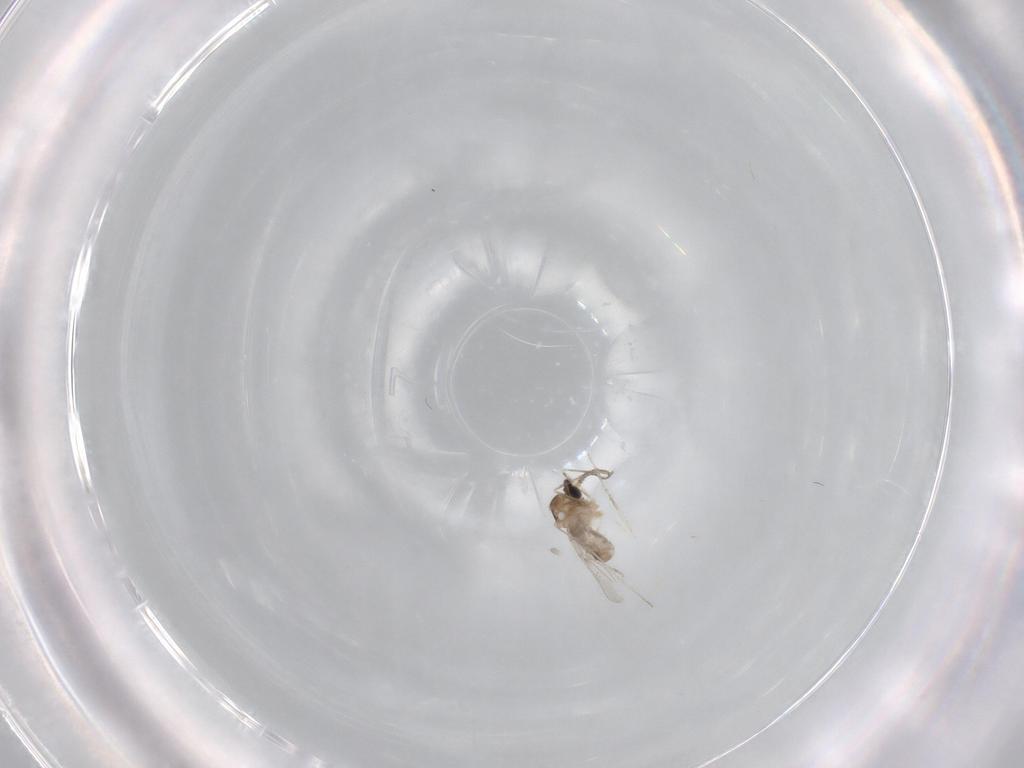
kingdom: Animalia
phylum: Arthropoda
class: Insecta
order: Diptera
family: Cecidomyiidae
